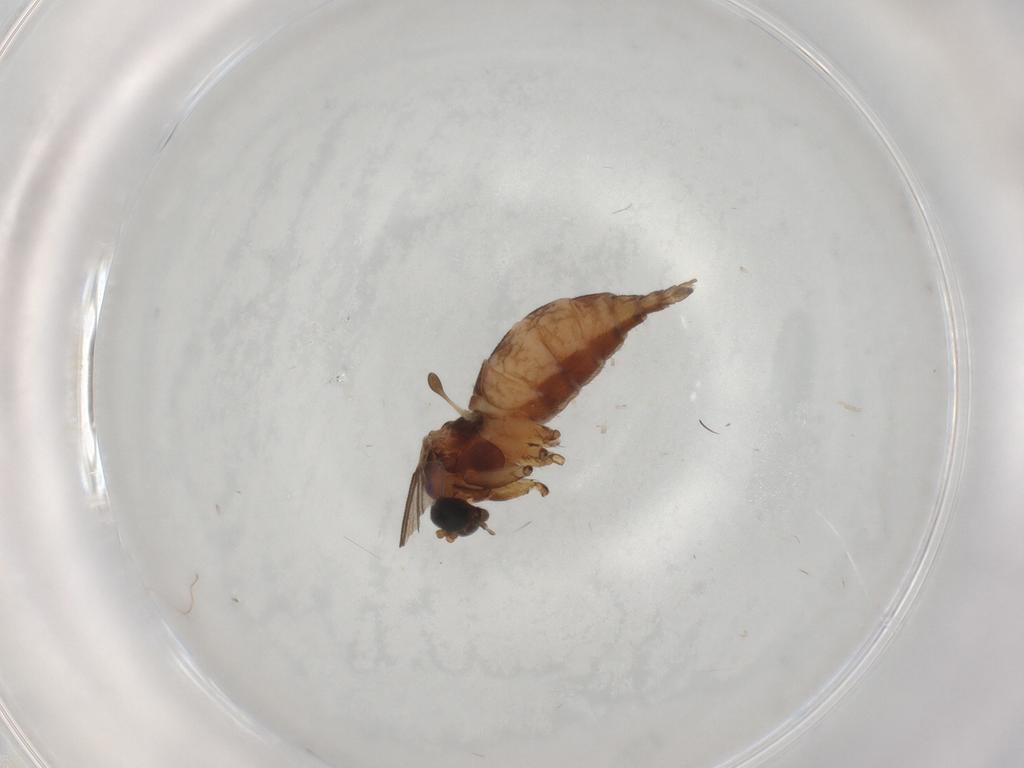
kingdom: Animalia
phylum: Arthropoda
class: Insecta
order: Diptera
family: Sciaridae
